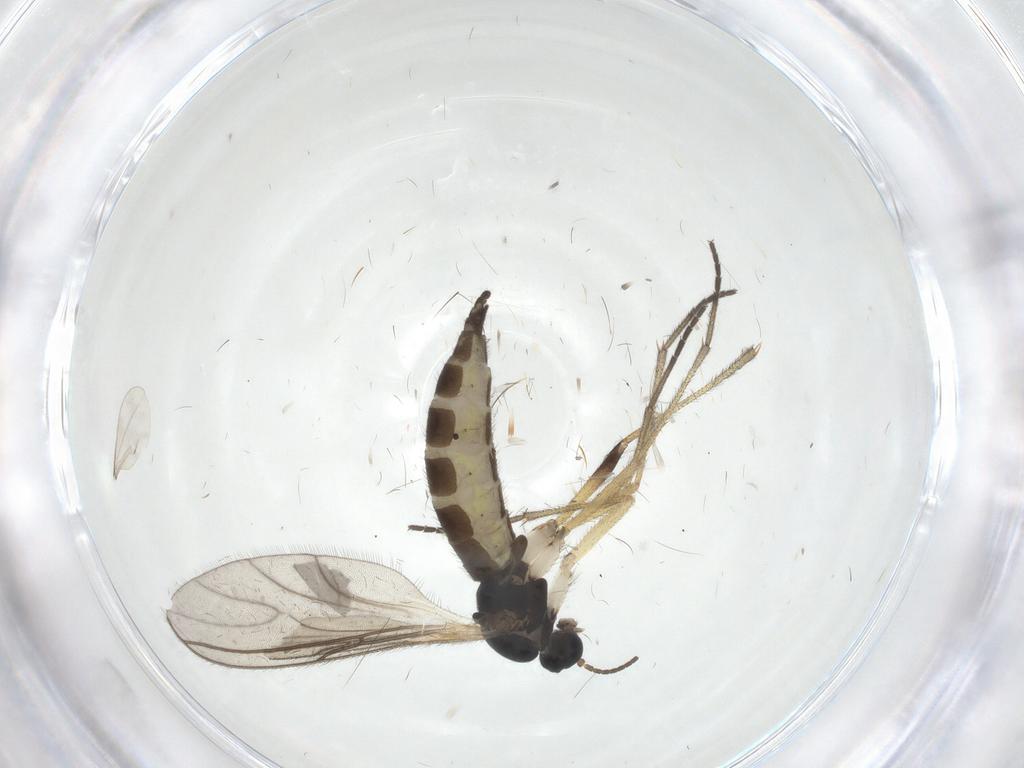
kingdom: Animalia
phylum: Arthropoda
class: Insecta
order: Diptera
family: Sciaridae
